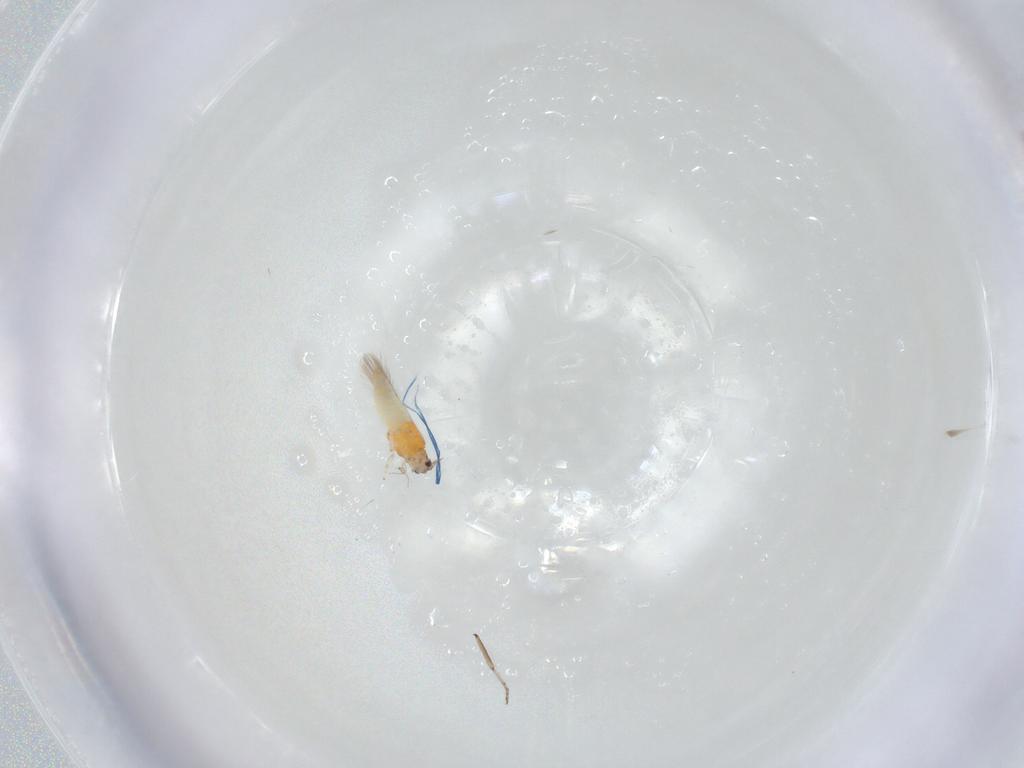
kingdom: Animalia
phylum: Arthropoda
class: Insecta
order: Thysanoptera
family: Thripidae
